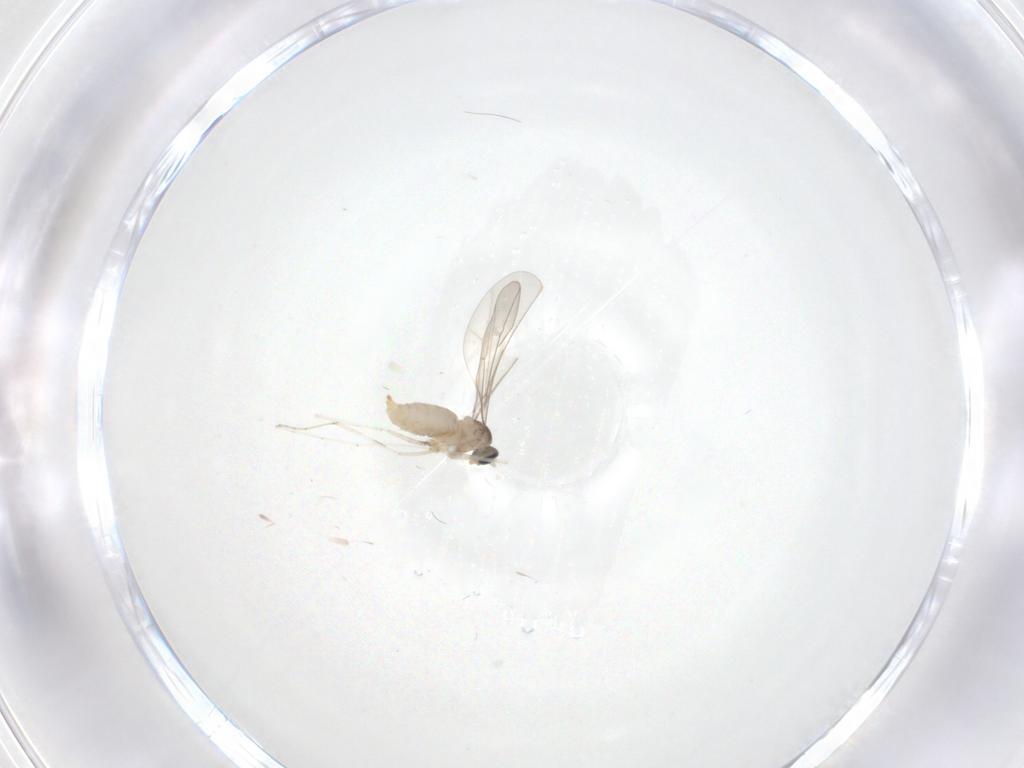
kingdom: Animalia
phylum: Arthropoda
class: Insecta
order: Diptera
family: Cecidomyiidae
